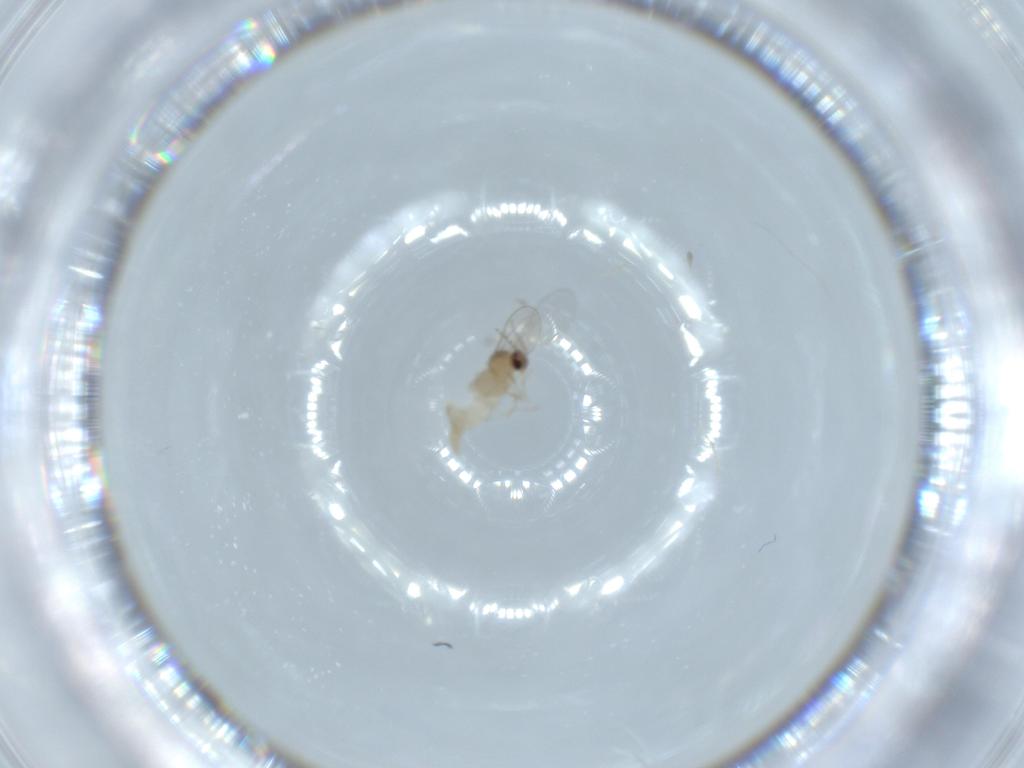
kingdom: Animalia
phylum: Arthropoda
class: Insecta
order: Diptera
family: Cecidomyiidae
